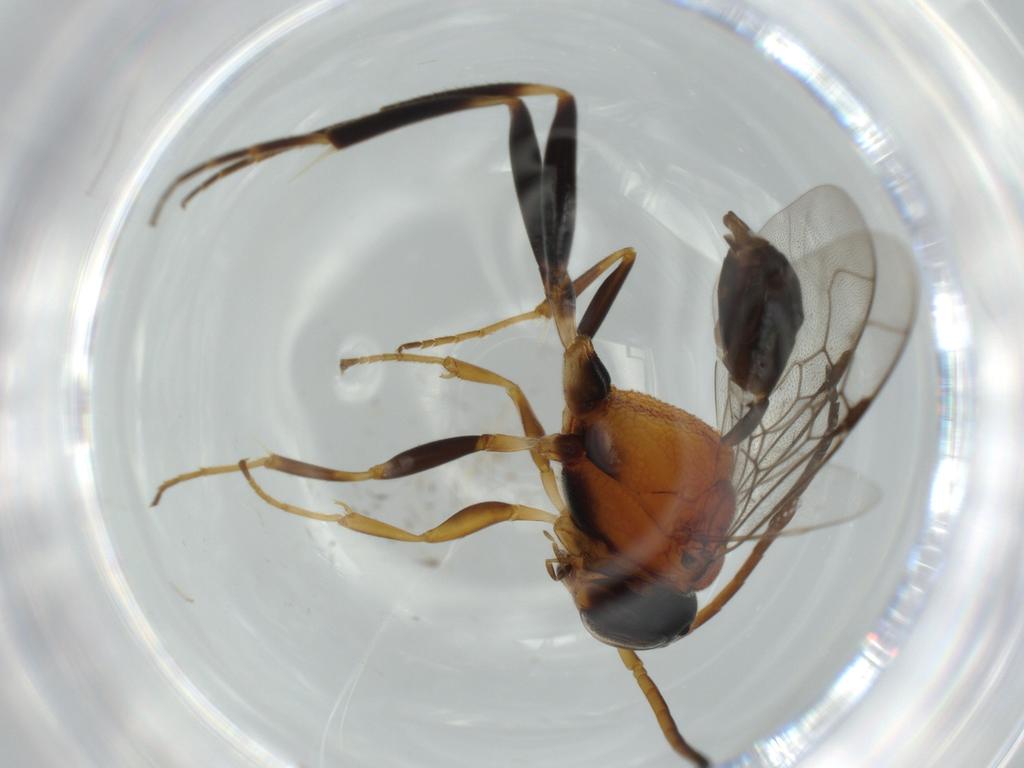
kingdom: Animalia
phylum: Arthropoda
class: Insecta
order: Hymenoptera
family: Evaniidae
